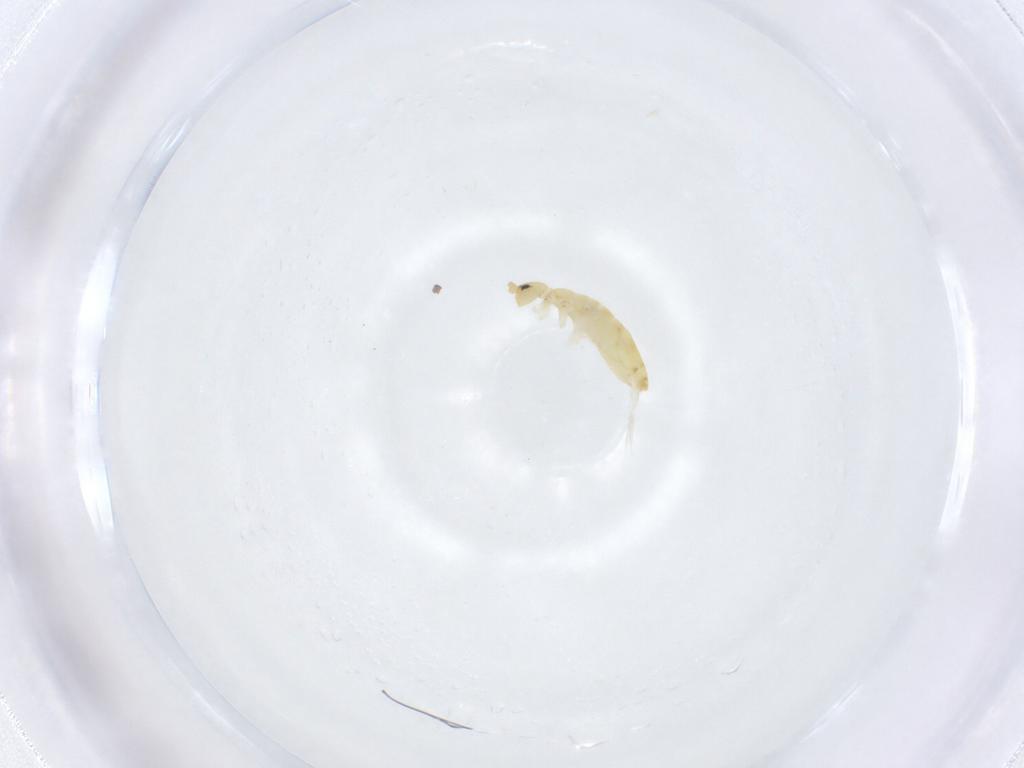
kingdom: Animalia
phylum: Arthropoda
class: Collembola
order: Entomobryomorpha
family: Entomobryidae
